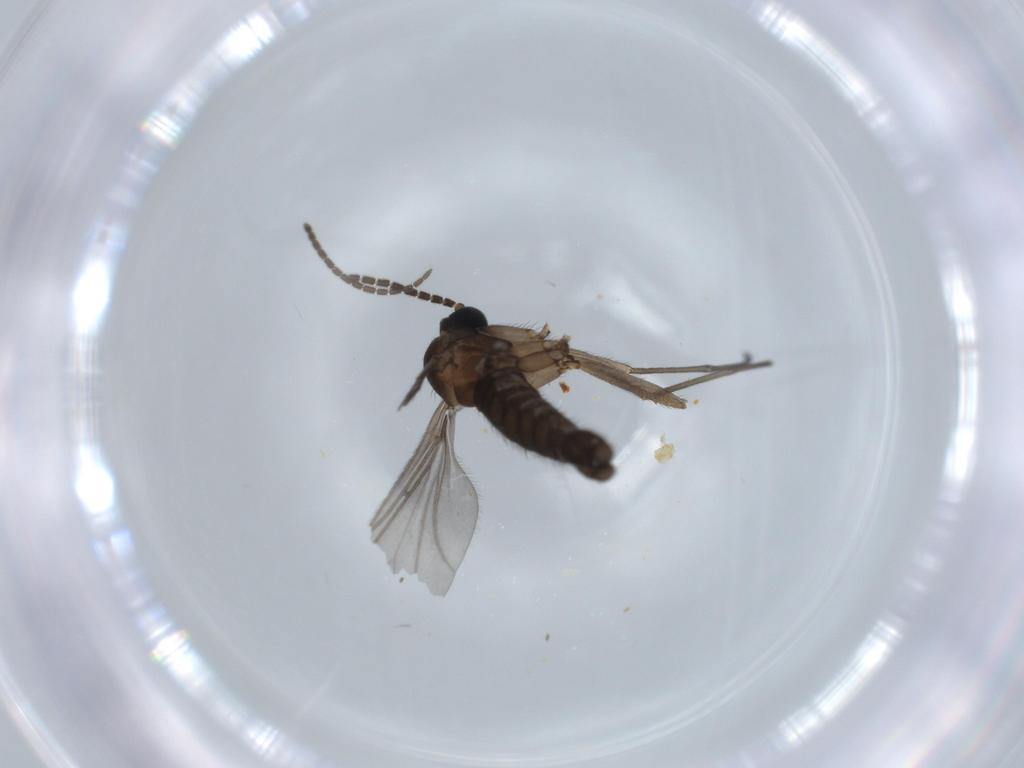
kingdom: Animalia
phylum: Arthropoda
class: Insecta
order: Diptera
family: Sciaridae
